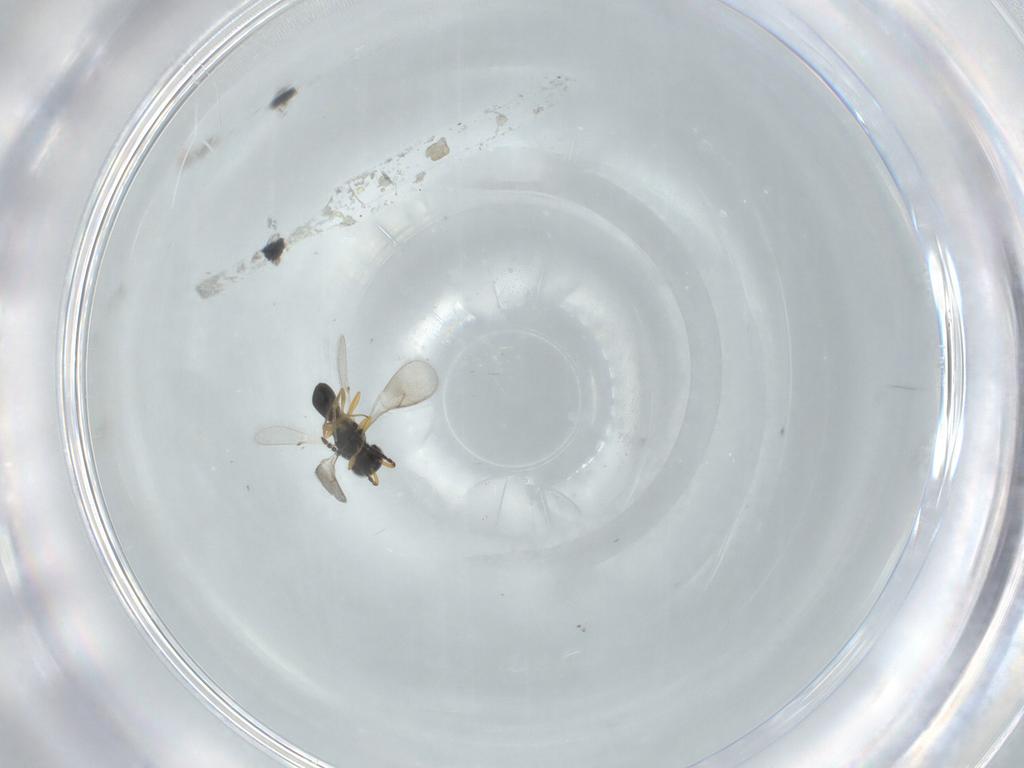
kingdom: Animalia
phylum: Arthropoda
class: Insecta
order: Hymenoptera
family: Scelionidae
